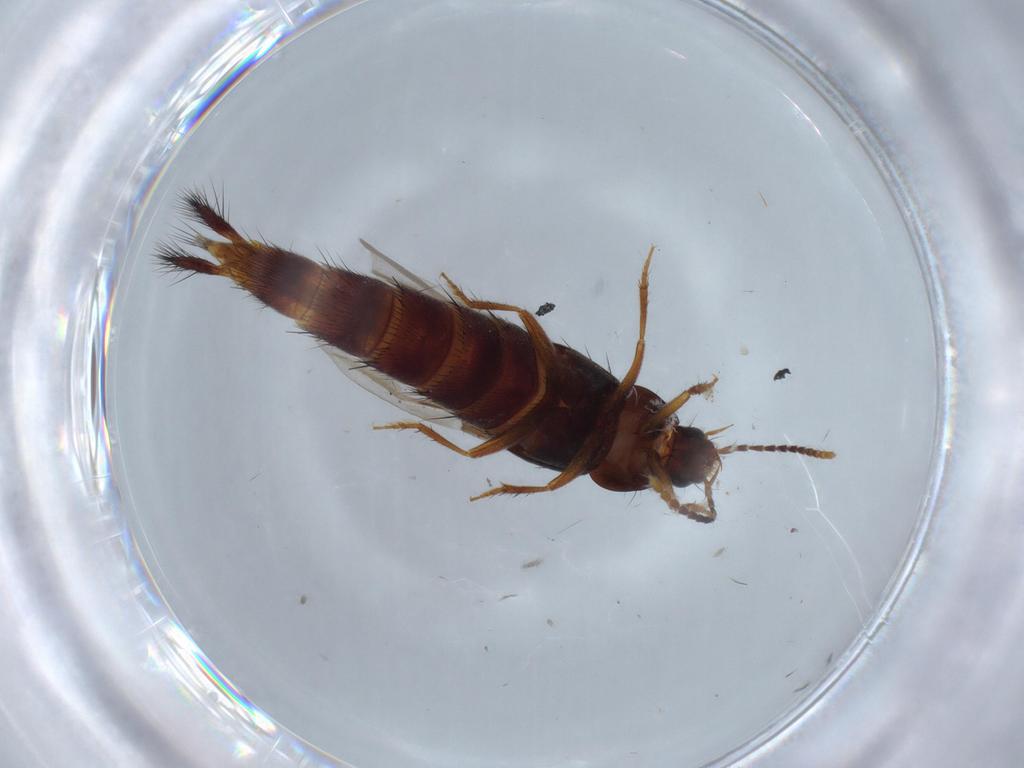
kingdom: Animalia
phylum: Arthropoda
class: Insecta
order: Coleoptera
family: Staphylinidae
